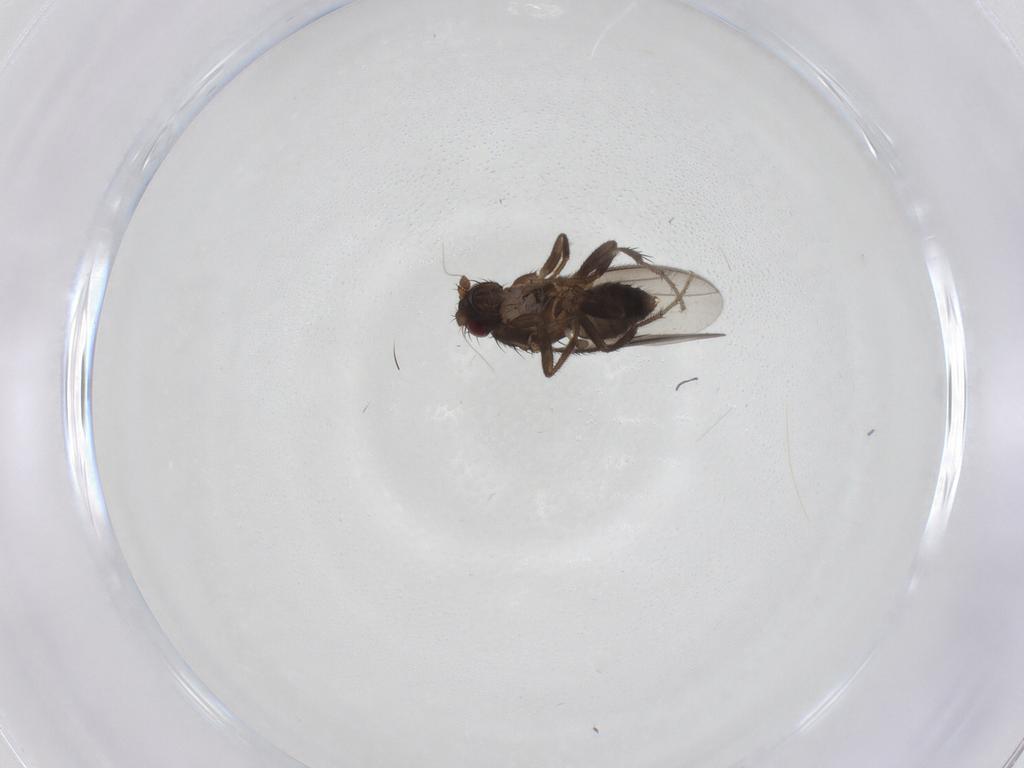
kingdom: Animalia
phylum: Arthropoda
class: Insecta
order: Diptera
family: Sphaeroceridae
